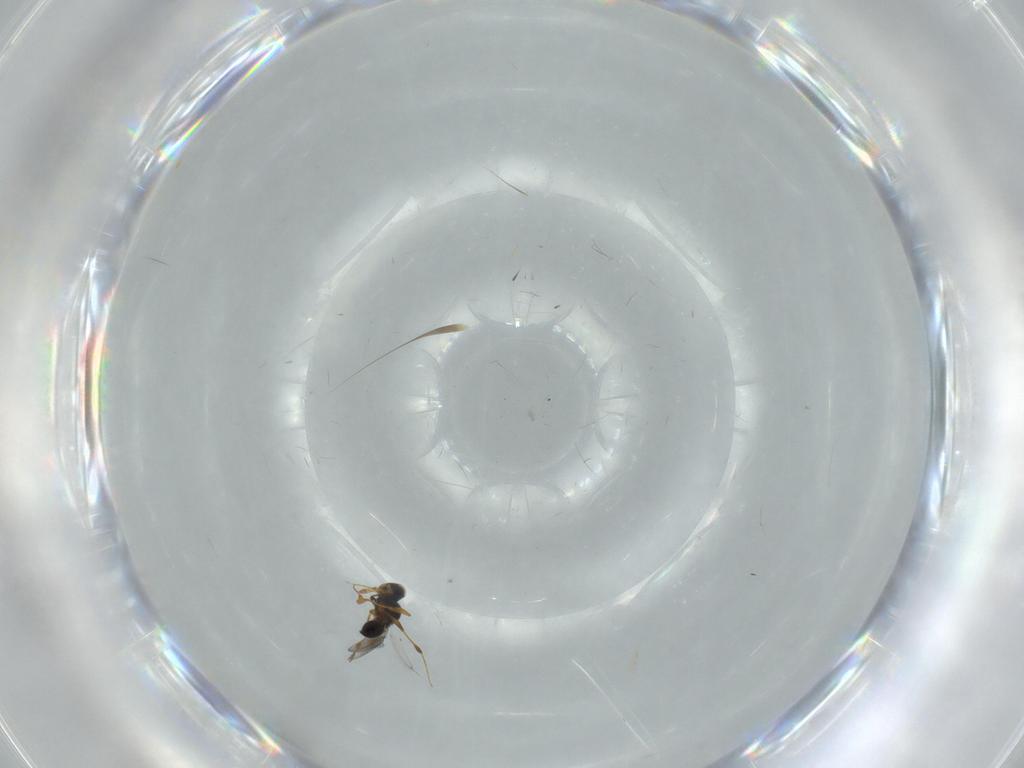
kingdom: Animalia
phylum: Arthropoda
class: Insecta
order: Hymenoptera
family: Platygastridae
